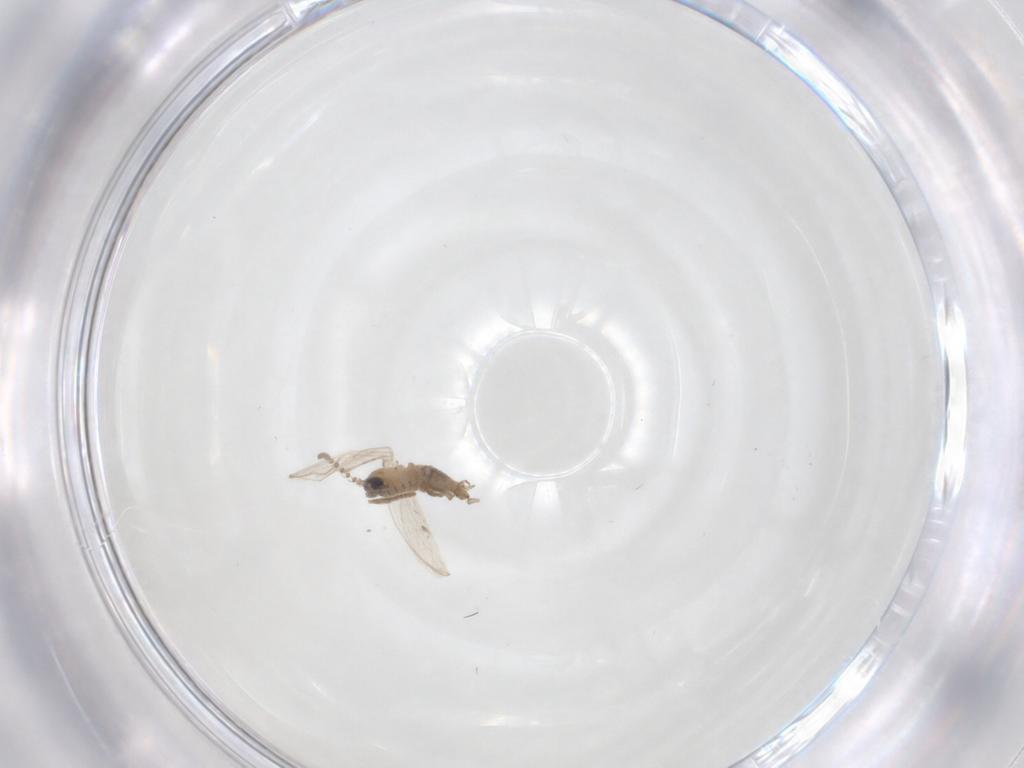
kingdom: Animalia
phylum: Arthropoda
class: Insecta
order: Diptera
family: Psychodidae
